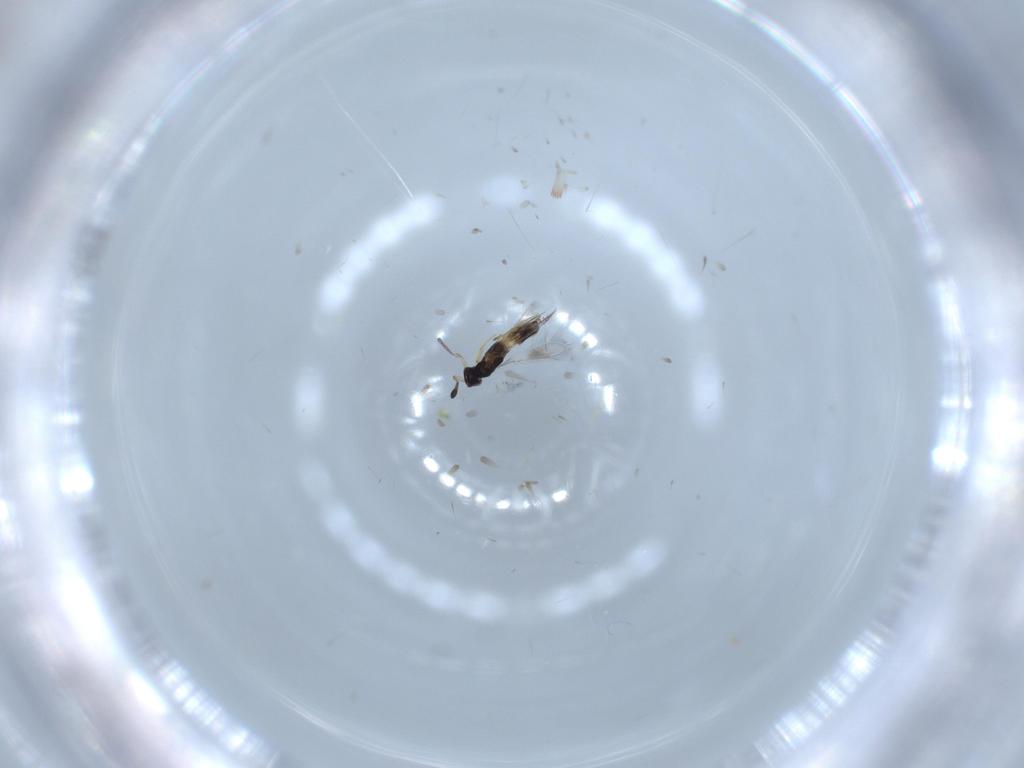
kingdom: Animalia
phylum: Arthropoda
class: Insecta
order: Hymenoptera
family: Mymaridae
